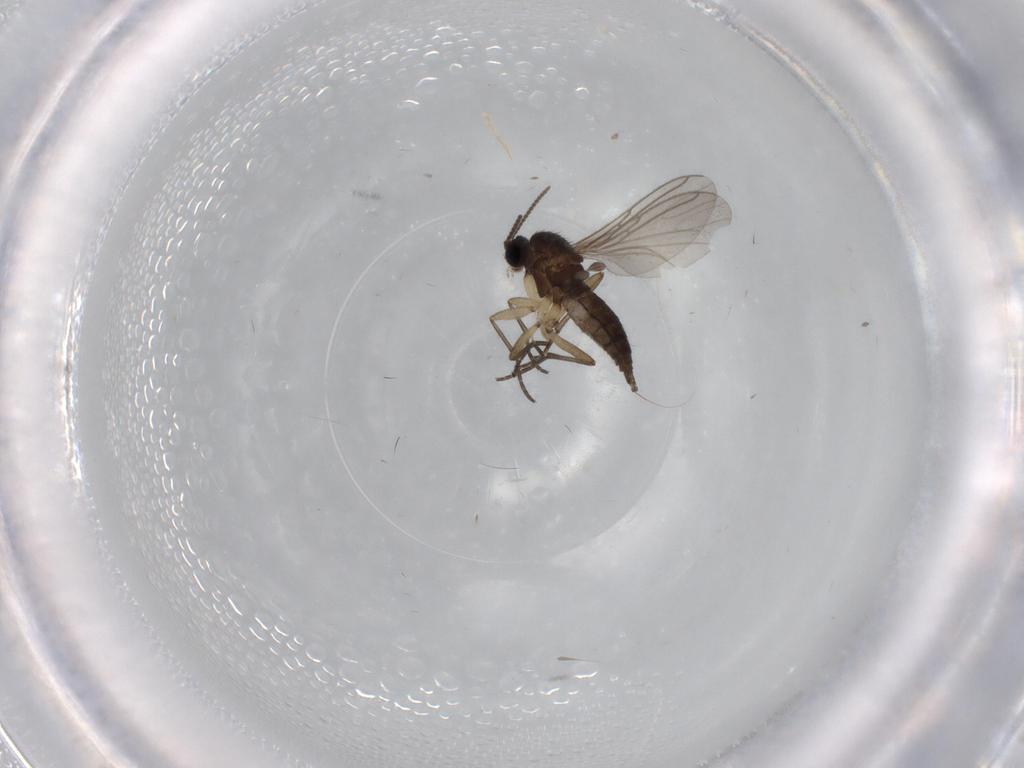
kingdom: Animalia
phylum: Arthropoda
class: Insecta
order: Diptera
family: Sciaridae
